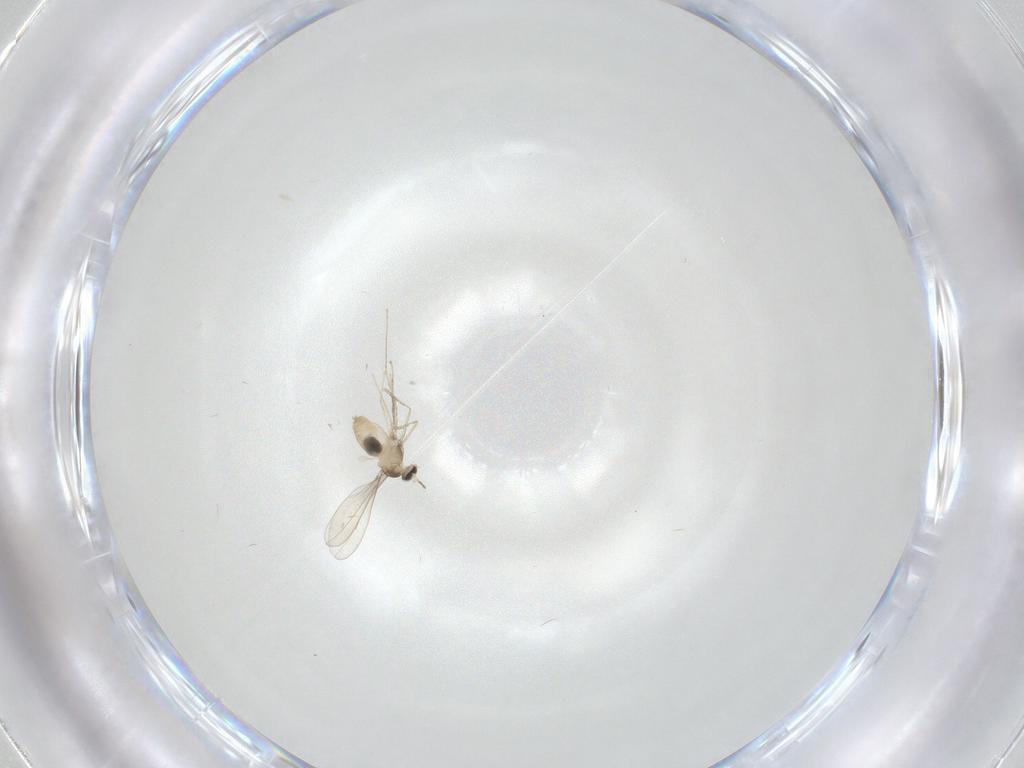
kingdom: Animalia
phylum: Arthropoda
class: Insecta
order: Diptera
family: Cecidomyiidae
